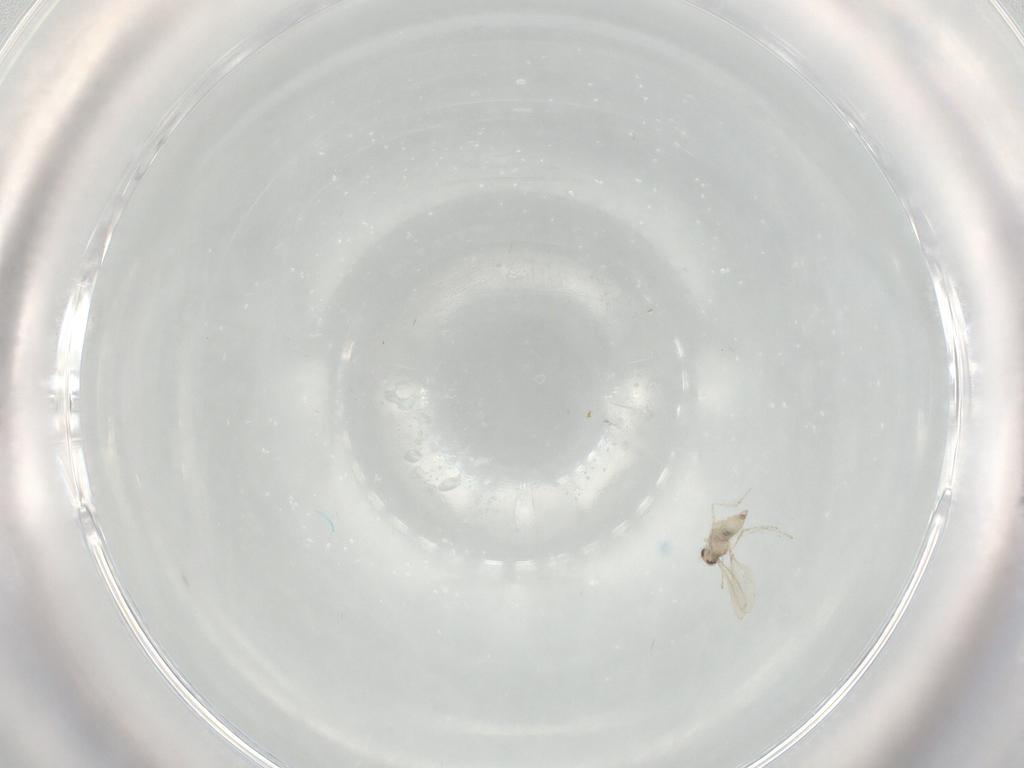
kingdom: Animalia
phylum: Arthropoda
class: Insecta
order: Diptera
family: Cecidomyiidae
